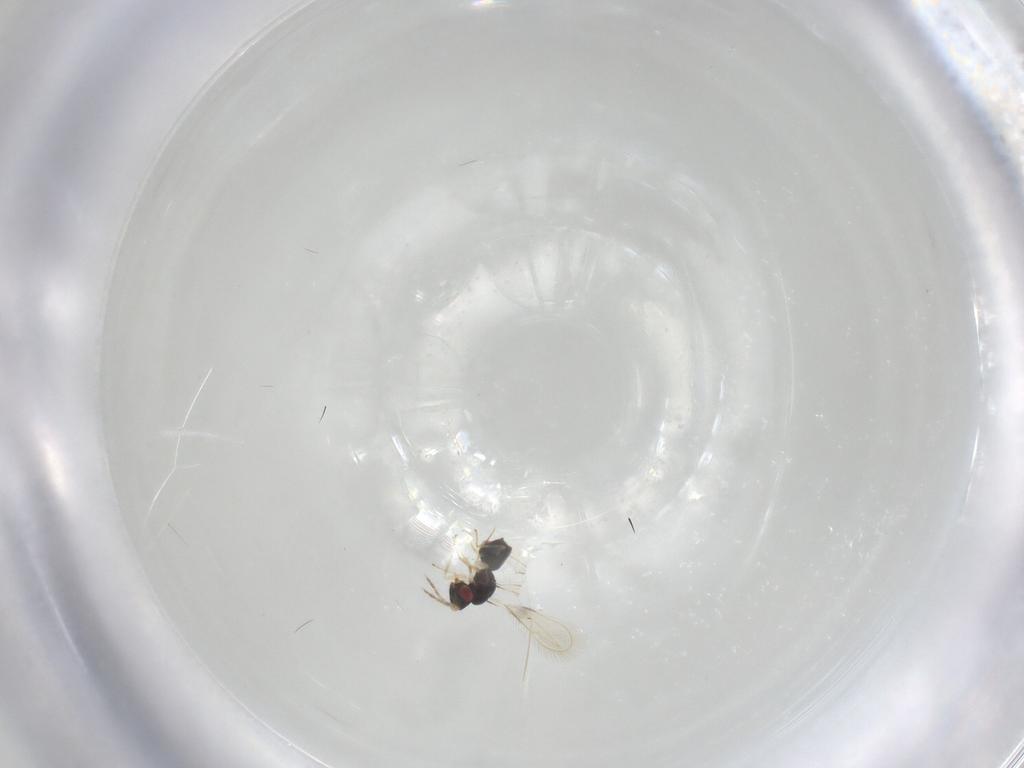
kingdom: Animalia
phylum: Arthropoda
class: Insecta
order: Hymenoptera
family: Eulophidae
